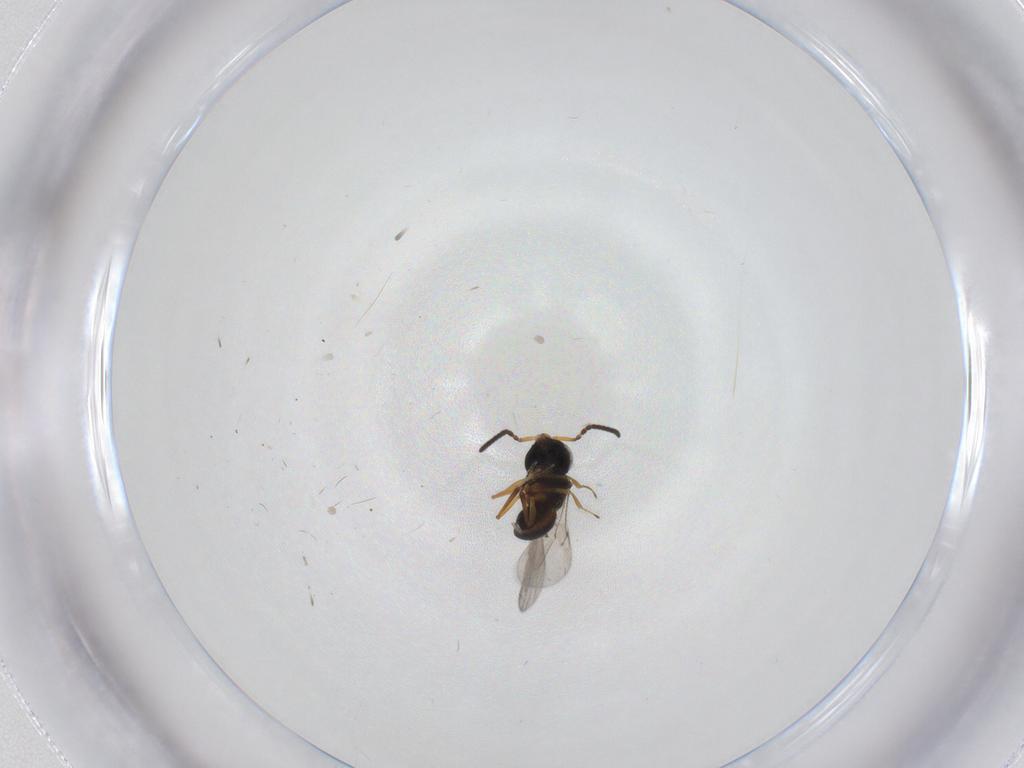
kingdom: Animalia
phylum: Arthropoda
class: Insecta
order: Hymenoptera
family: Scelionidae
